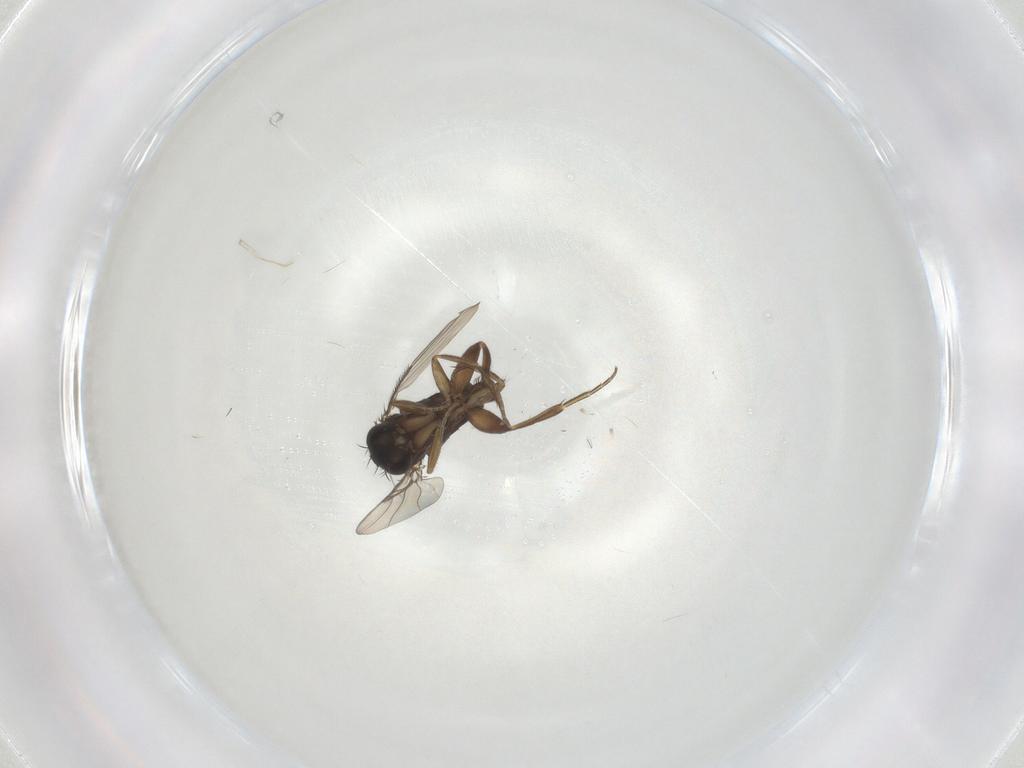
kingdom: Animalia
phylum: Arthropoda
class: Insecta
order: Diptera
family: Phoridae
